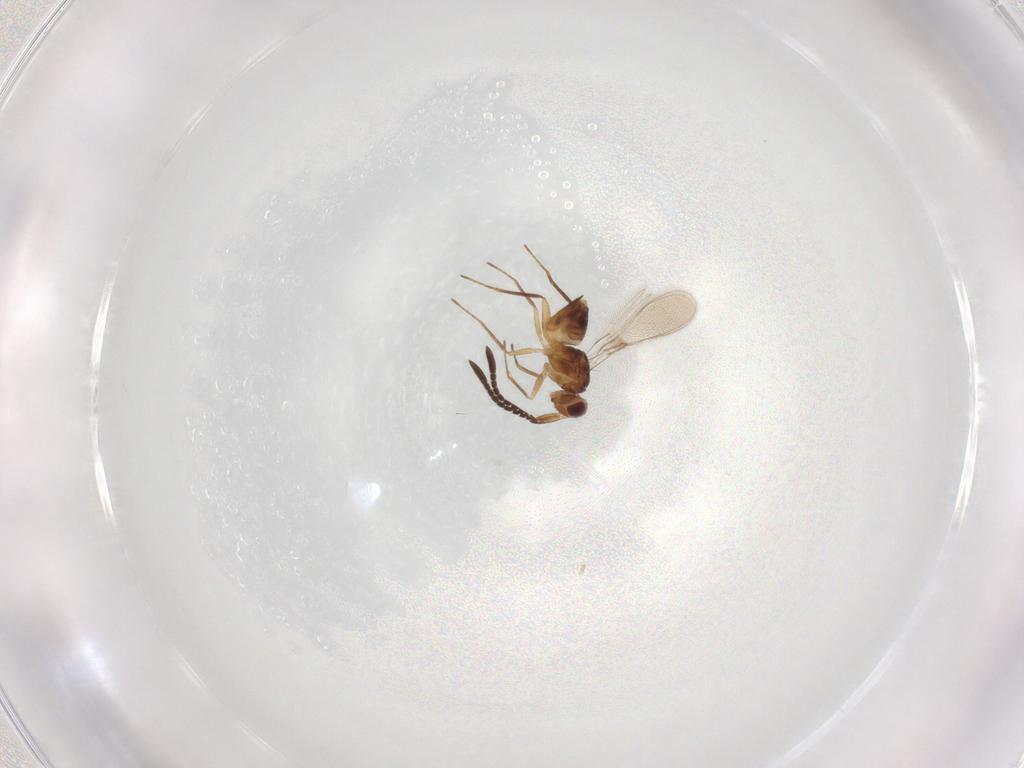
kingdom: Animalia
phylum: Arthropoda
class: Insecta
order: Hymenoptera
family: Formicidae
